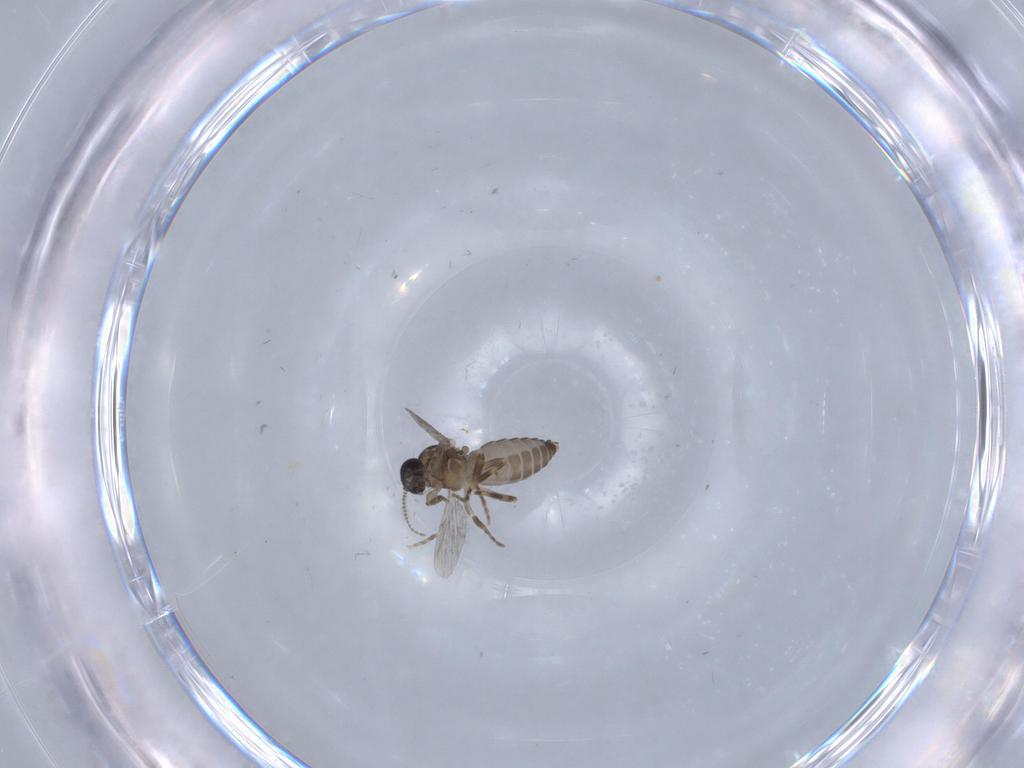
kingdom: Animalia
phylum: Arthropoda
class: Insecta
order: Diptera
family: Ceratopogonidae
